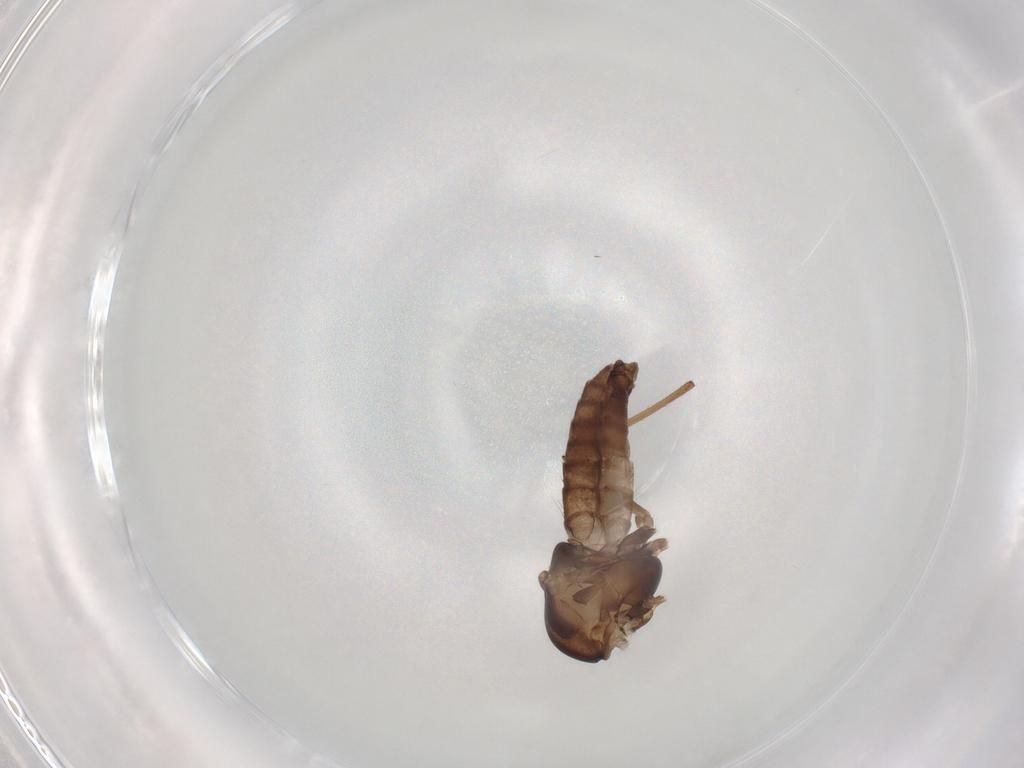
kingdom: Animalia
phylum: Arthropoda
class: Insecta
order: Diptera
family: Chironomidae
